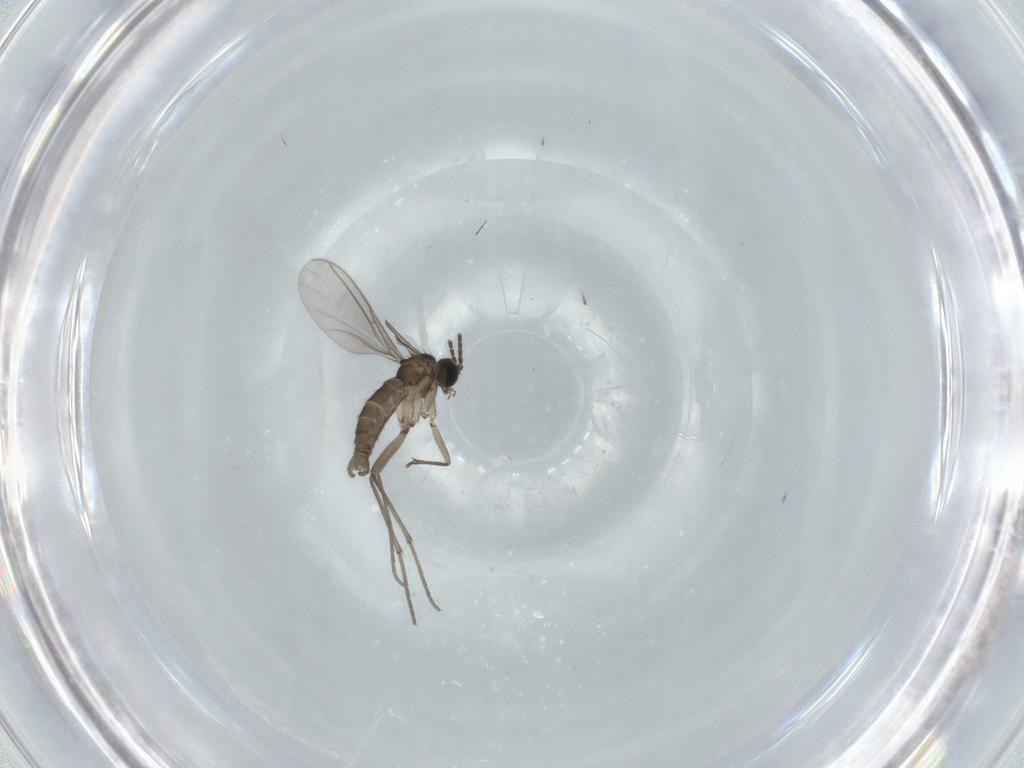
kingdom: Animalia
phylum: Arthropoda
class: Insecta
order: Diptera
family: Sciaridae
